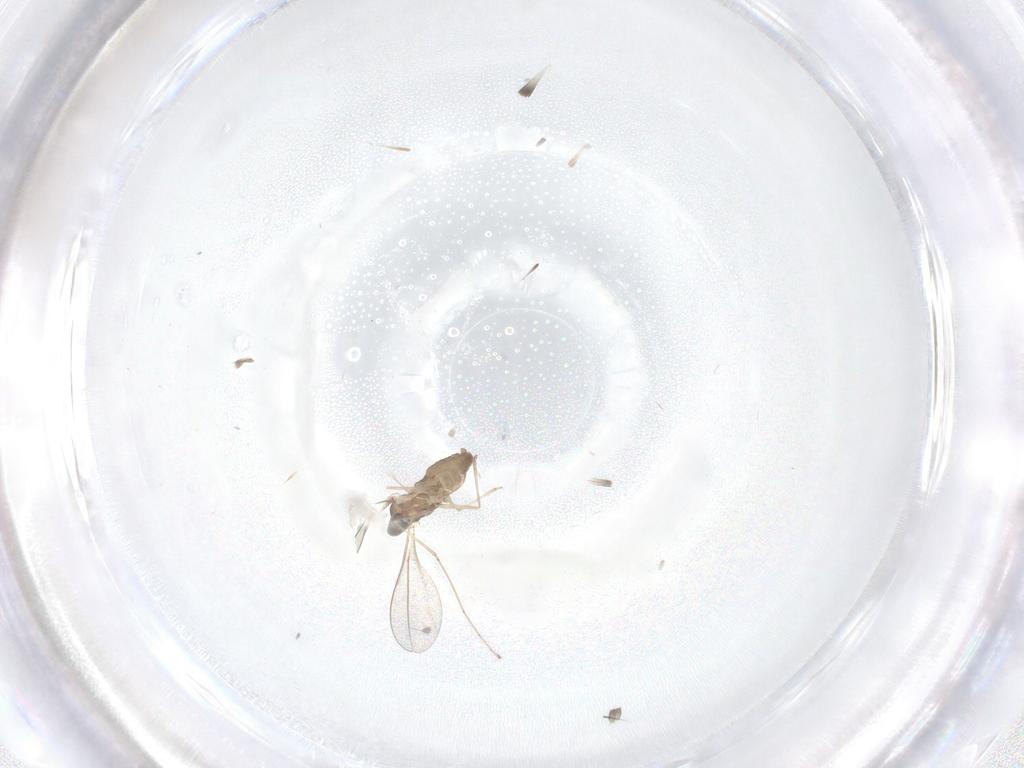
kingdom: Animalia
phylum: Arthropoda
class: Insecta
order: Diptera
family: Cecidomyiidae
